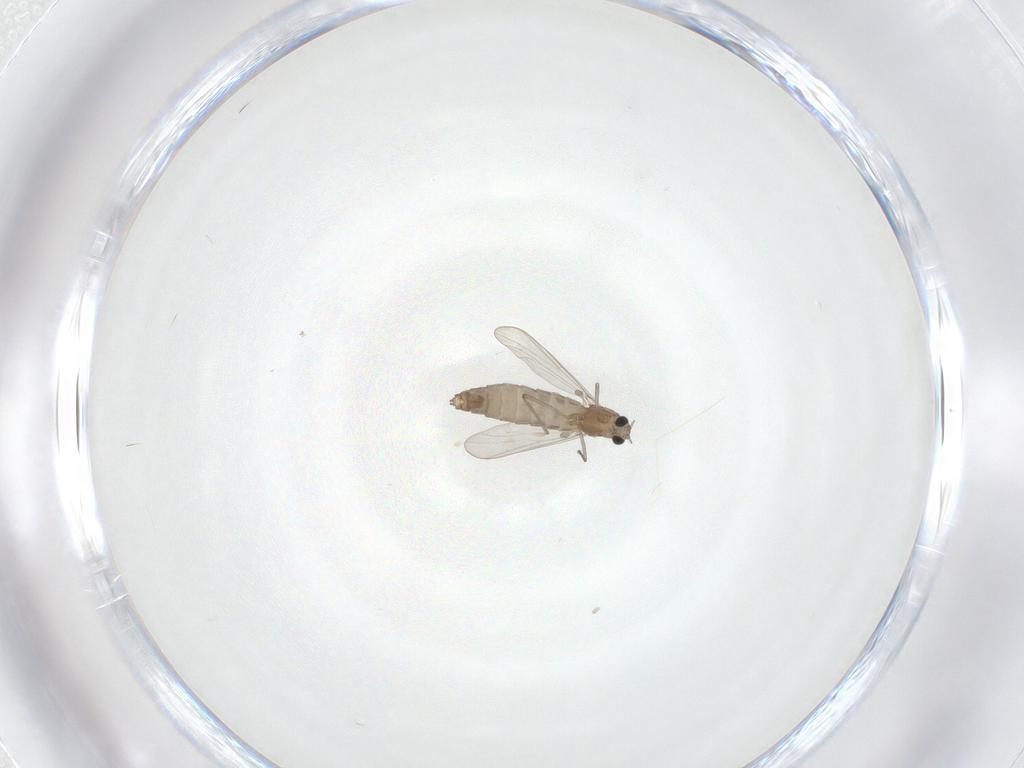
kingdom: Animalia
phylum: Arthropoda
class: Insecta
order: Diptera
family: Chironomidae
